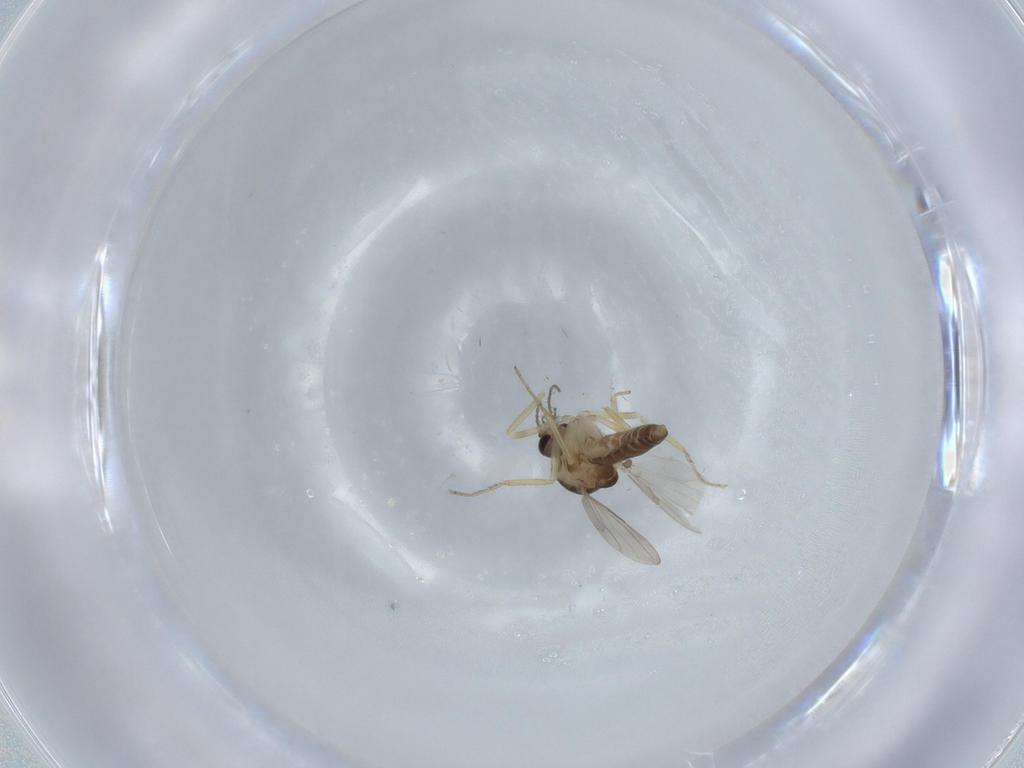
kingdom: Animalia
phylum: Arthropoda
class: Insecta
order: Diptera
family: Ceratopogonidae
